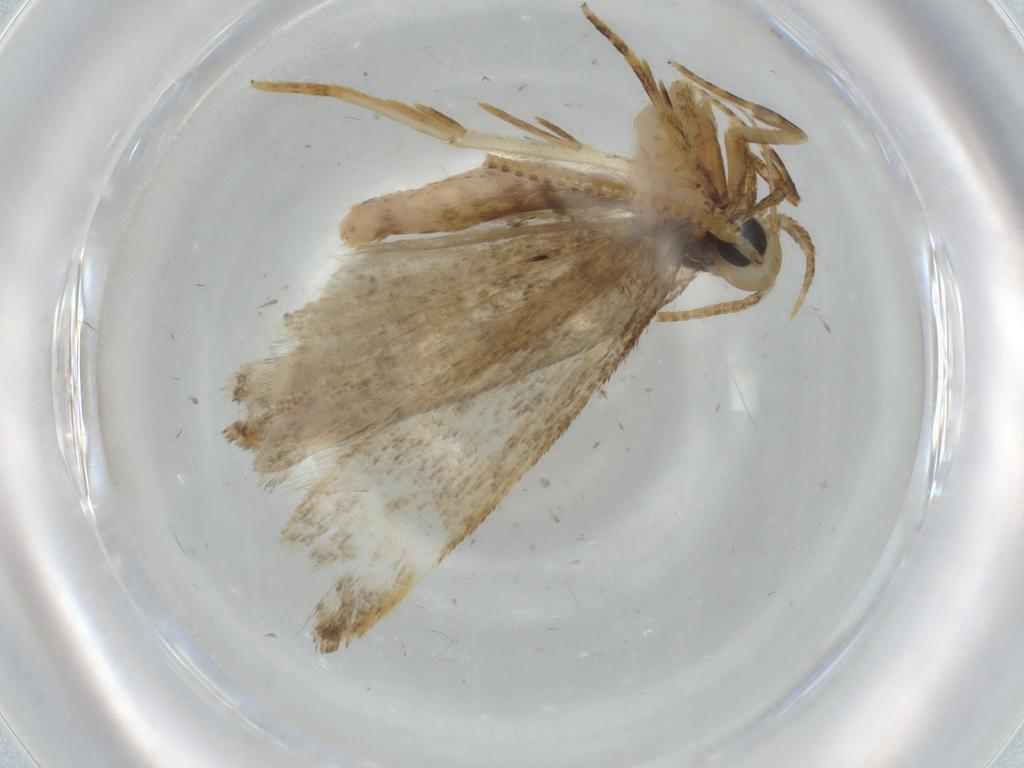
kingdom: Animalia
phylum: Arthropoda
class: Insecta
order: Lepidoptera
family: Autostichidae
